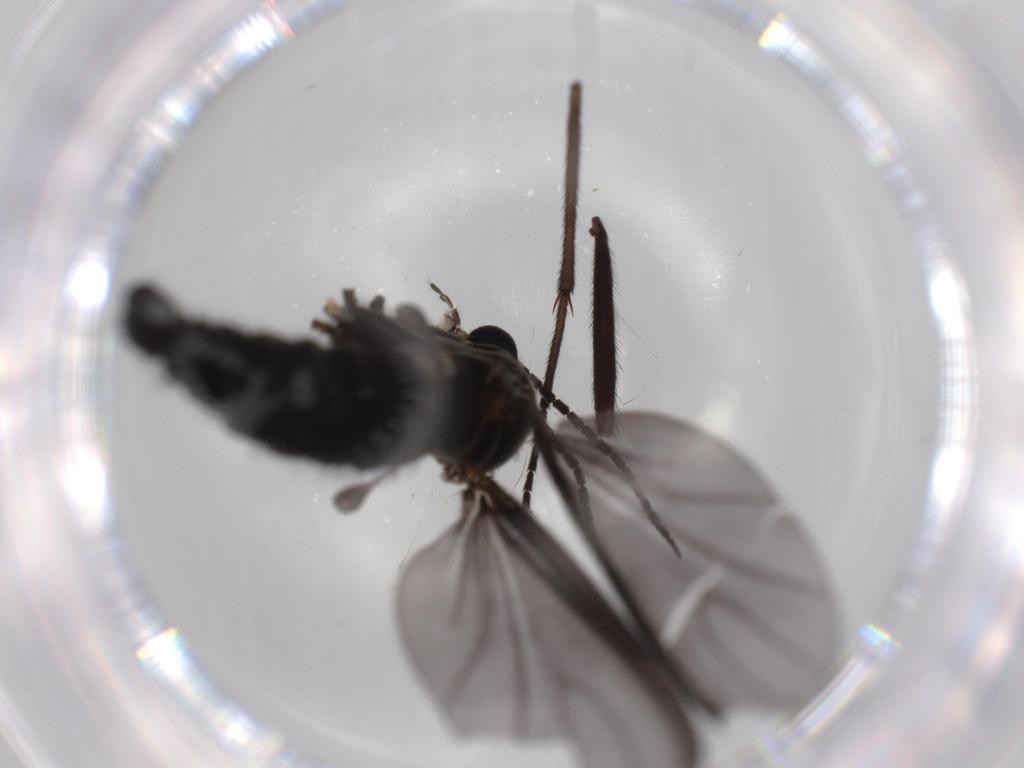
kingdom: Animalia
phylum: Arthropoda
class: Insecta
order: Diptera
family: Sciaridae
